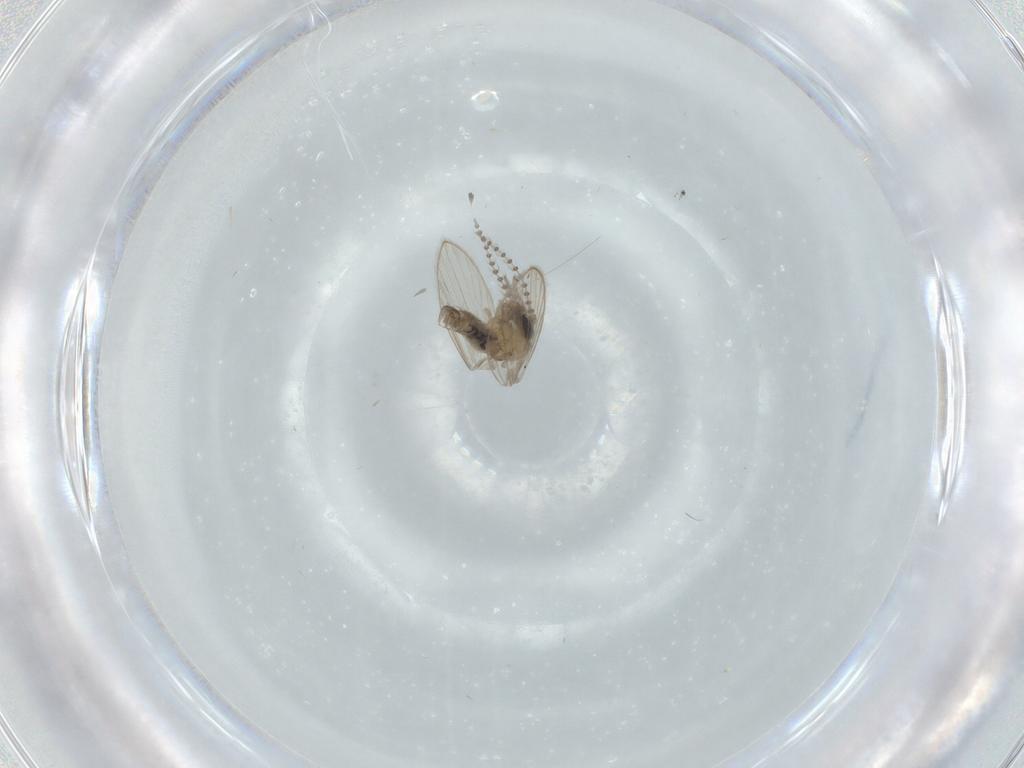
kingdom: Animalia
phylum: Arthropoda
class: Insecta
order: Diptera
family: Psychodidae
